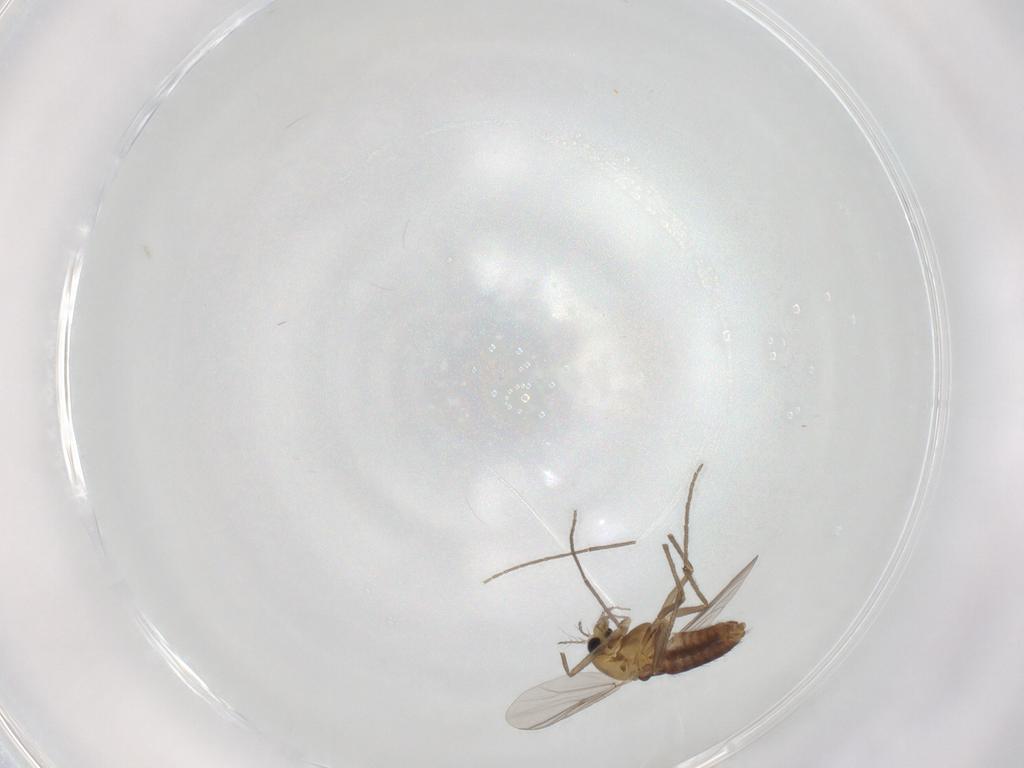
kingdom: Animalia
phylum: Arthropoda
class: Insecta
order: Diptera
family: Chironomidae
